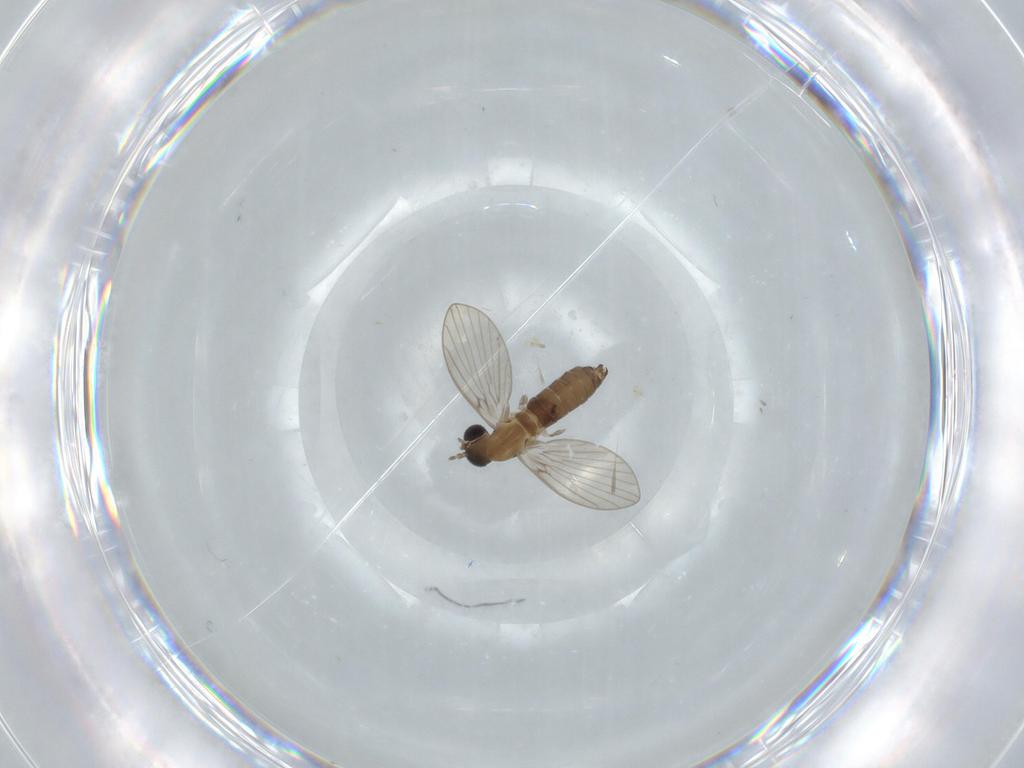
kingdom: Animalia
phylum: Arthropoda
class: Insecta
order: Diptera
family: Psychodidae
